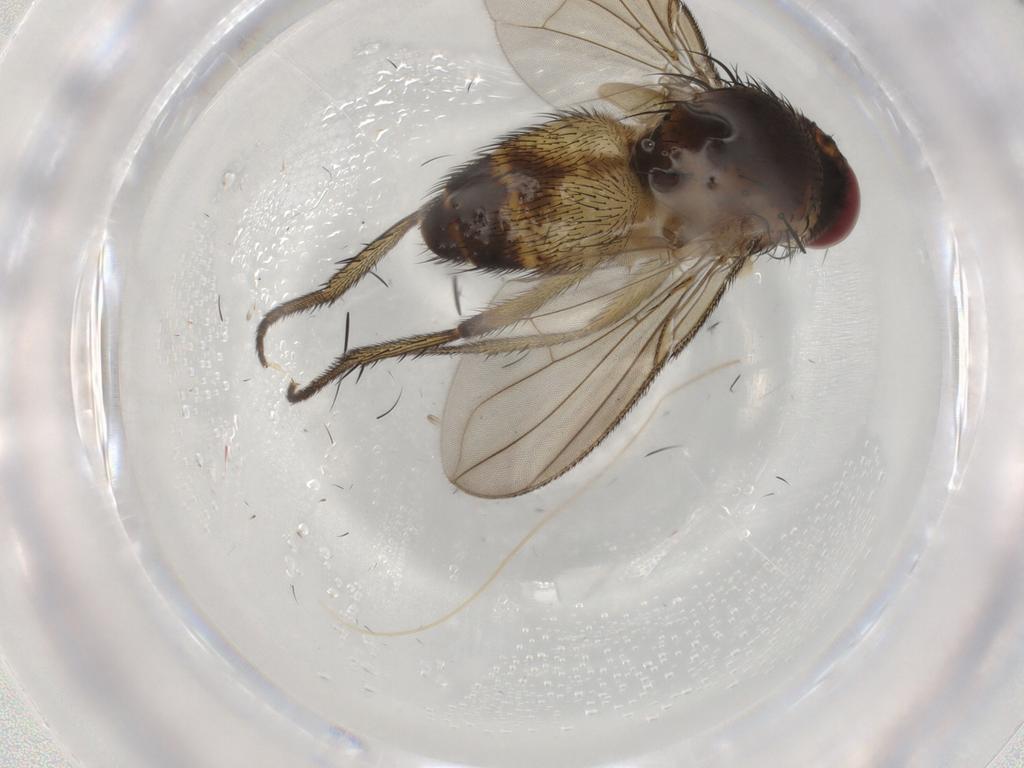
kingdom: Animalia
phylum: Arthropoda
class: Insecta
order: Diptera
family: Tachinidae
